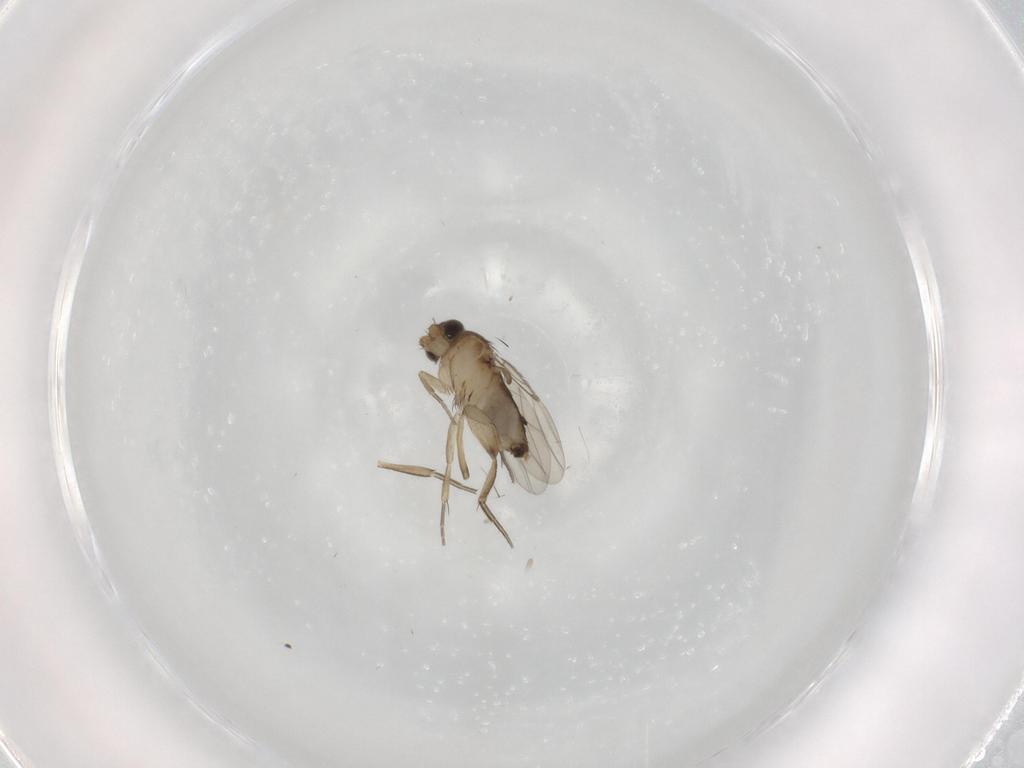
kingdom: Animalia
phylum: Arthropoda
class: Insecta
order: Diptera
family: Phoridae
